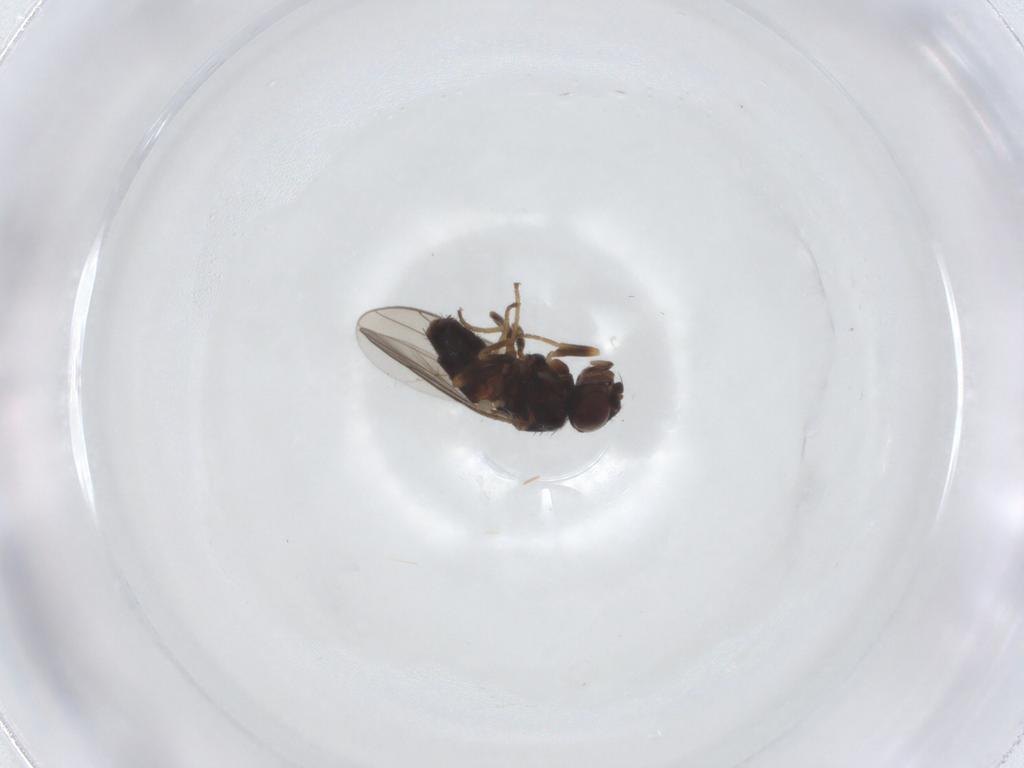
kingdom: Animalia
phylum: Arthropoda
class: Insecta
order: Diptera
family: Chloropidae
